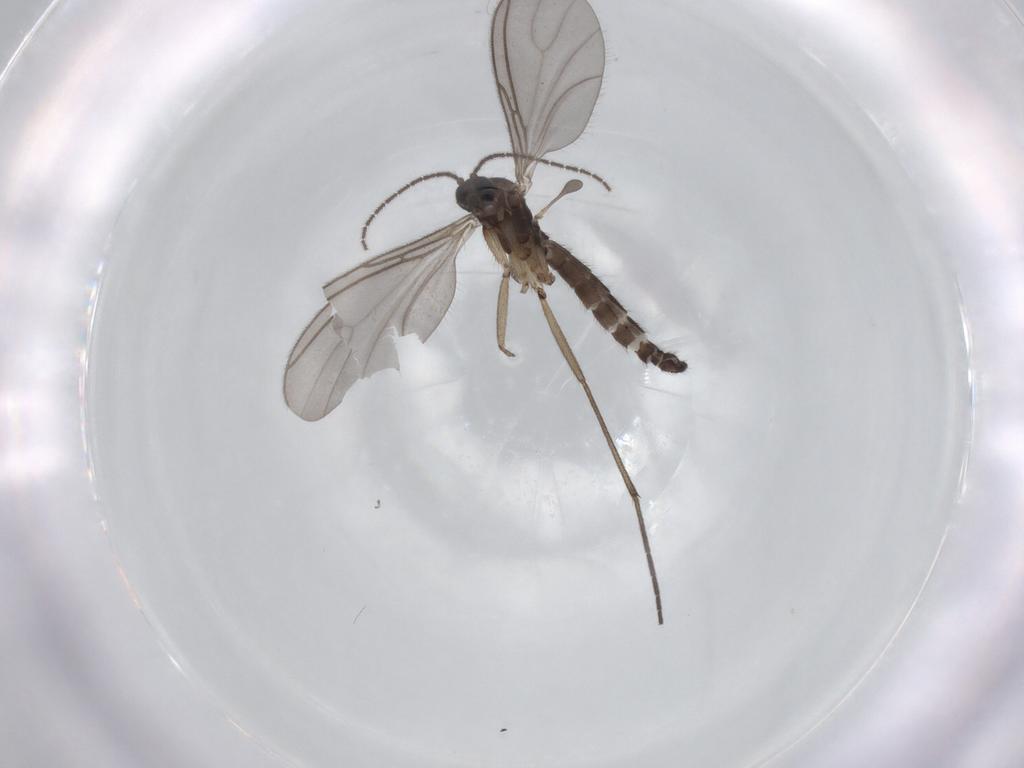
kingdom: Animalia
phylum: Arthropoda
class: Insecta
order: Diptera
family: Sciaridae
